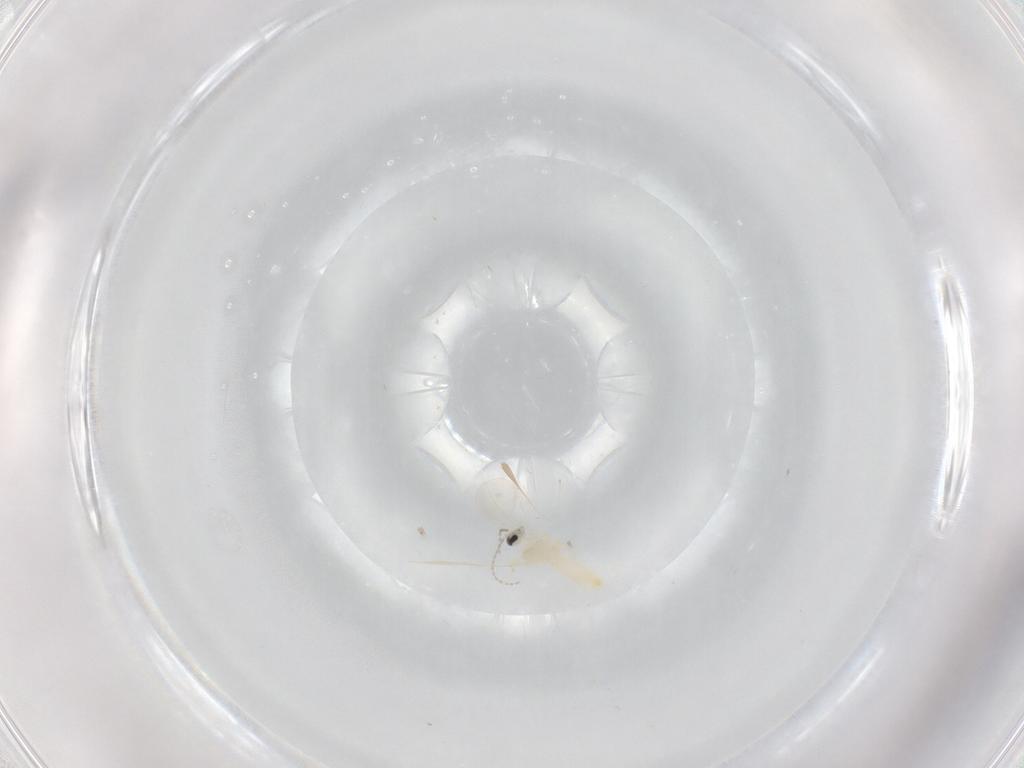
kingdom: Animalia
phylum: Arthropoda
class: Insecta
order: Diptera
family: Cecidomyiidae
